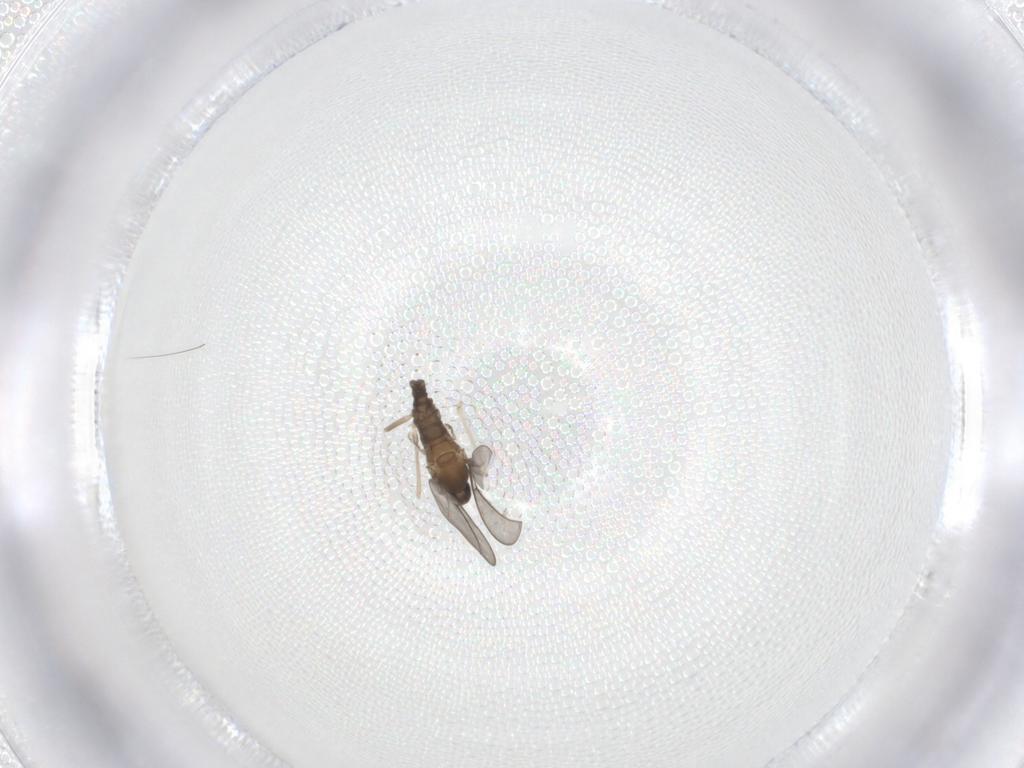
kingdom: Animalia
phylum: Arthropoda
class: Insecta
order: Diptera
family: Cecidomyiidae
